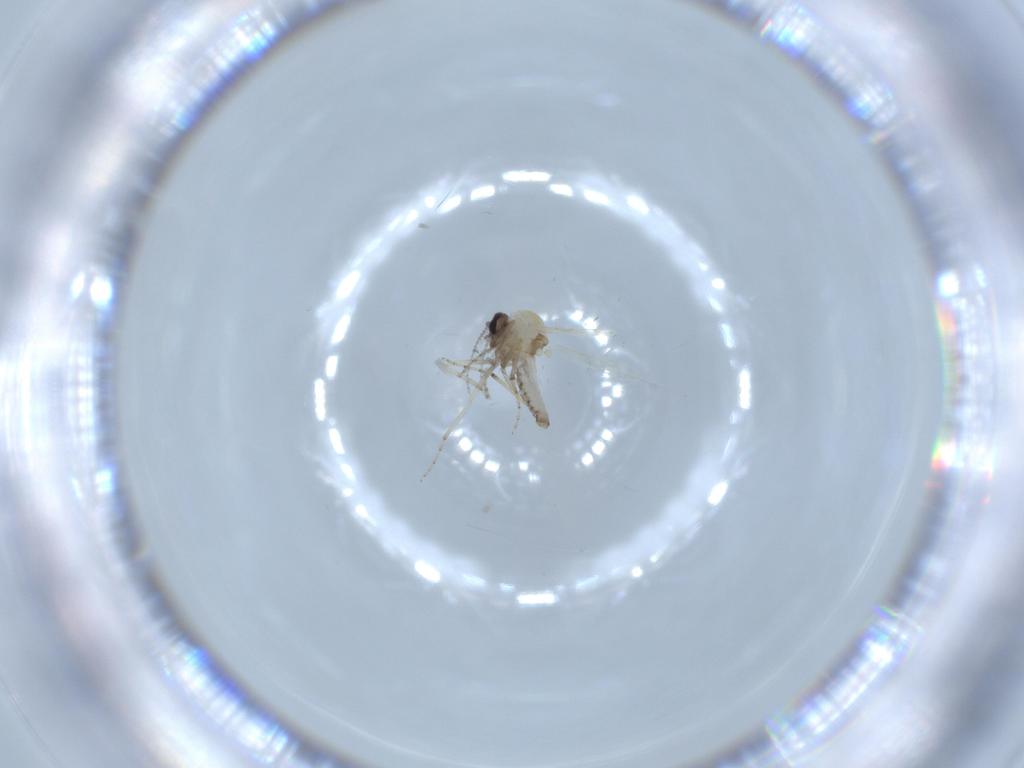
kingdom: Animalia
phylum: Arthropoda
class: Insecta
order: Diptera
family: Ceratopogonidae
